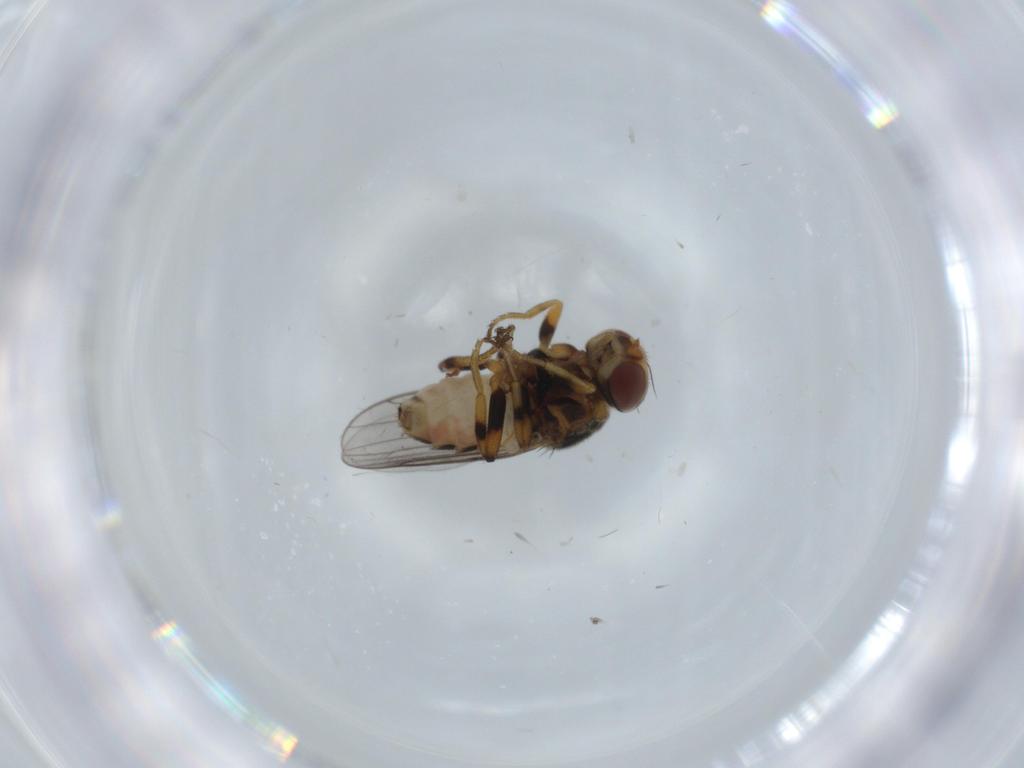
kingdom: Animalia
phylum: Arthropoda
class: Insecta
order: Diptera
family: Chloropidae
